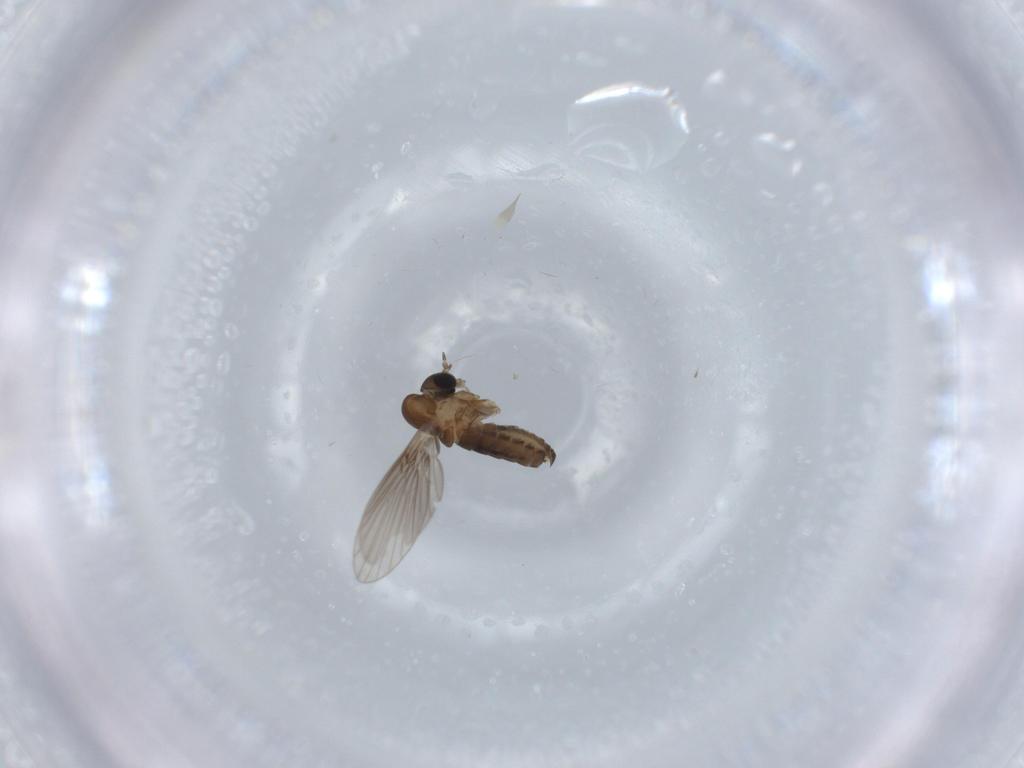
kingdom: Animalia
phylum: Arthropoda
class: Insecta
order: Diptera
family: Psychodidae
